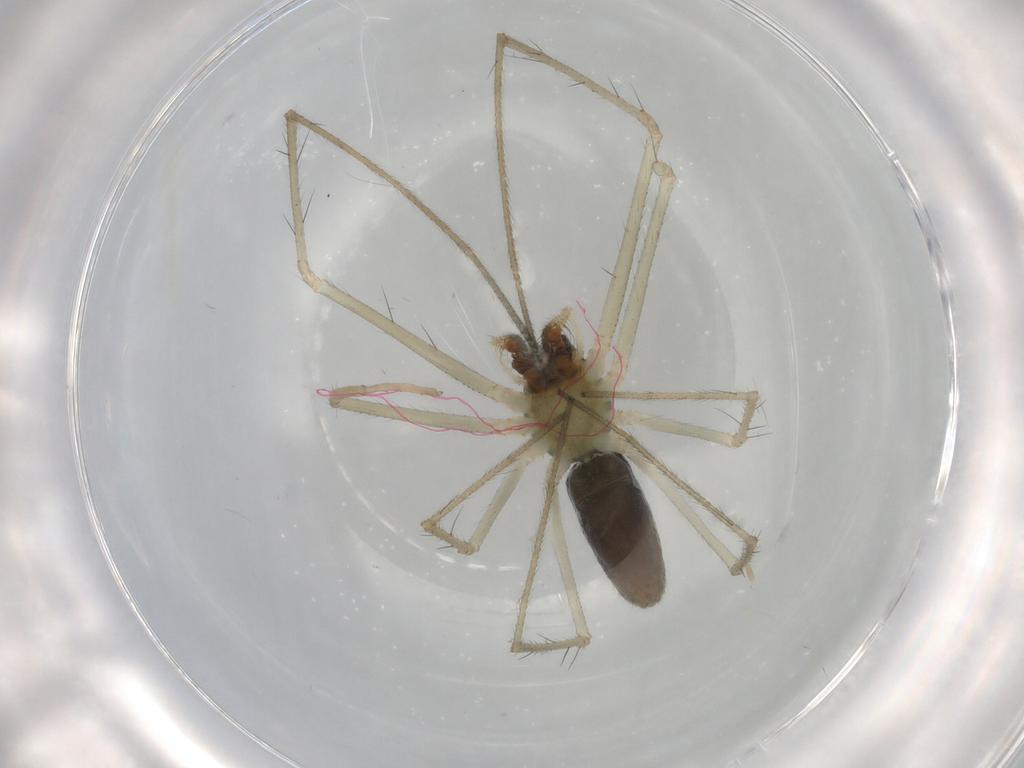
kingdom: Animalia
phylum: Arthropoda
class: Arachnida
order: Araneae
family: Linyphiidae
